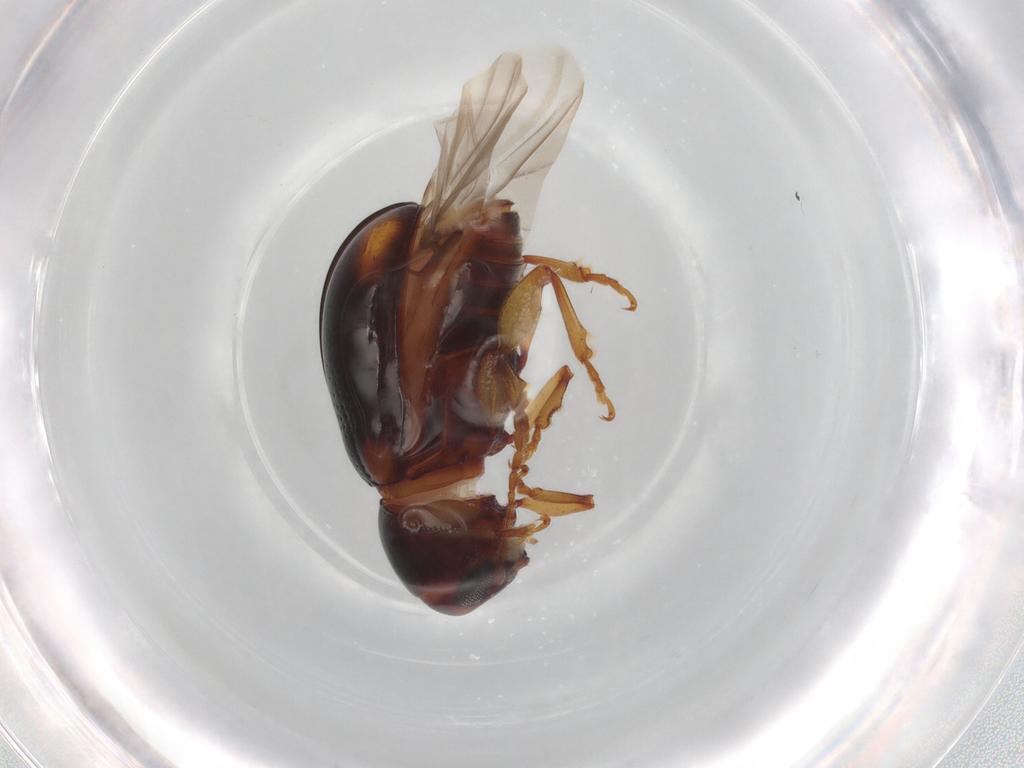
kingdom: Animalia
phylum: Arthropoda
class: Insecta
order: Coleoptera
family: Chrysomelidae
